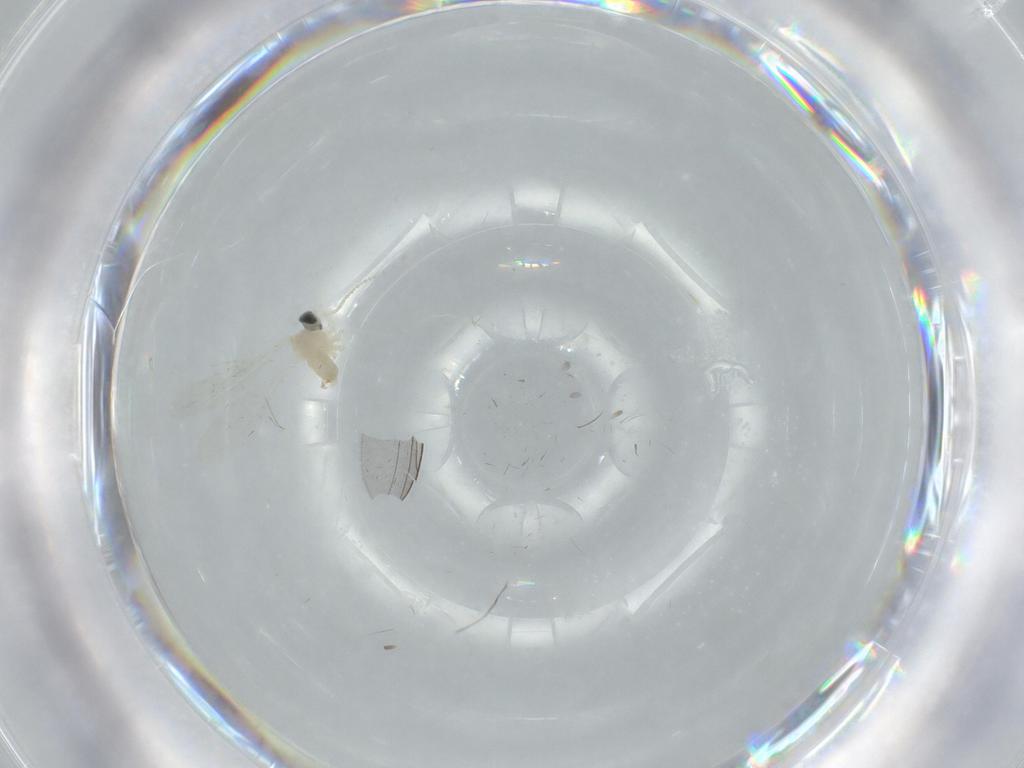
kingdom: Animalia
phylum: Arthropoda
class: Insecta
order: Diptera
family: Dolichopodidae
